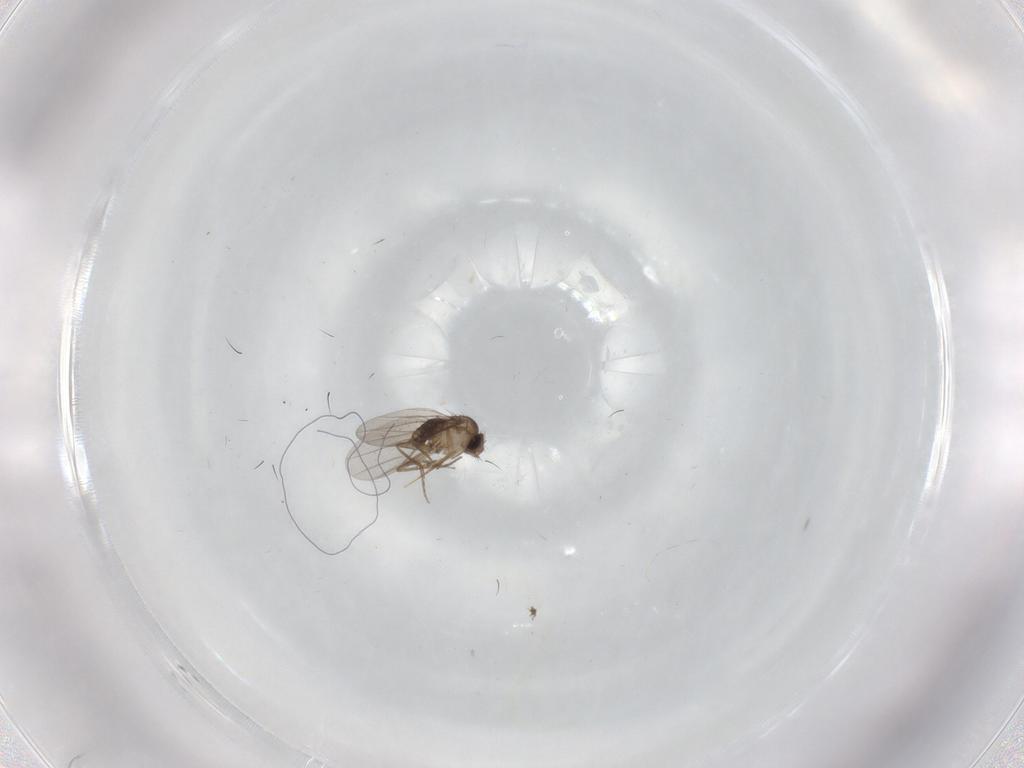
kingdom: Animalia
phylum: Arthropoda
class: Insecta
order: Diptera
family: Phoridae
